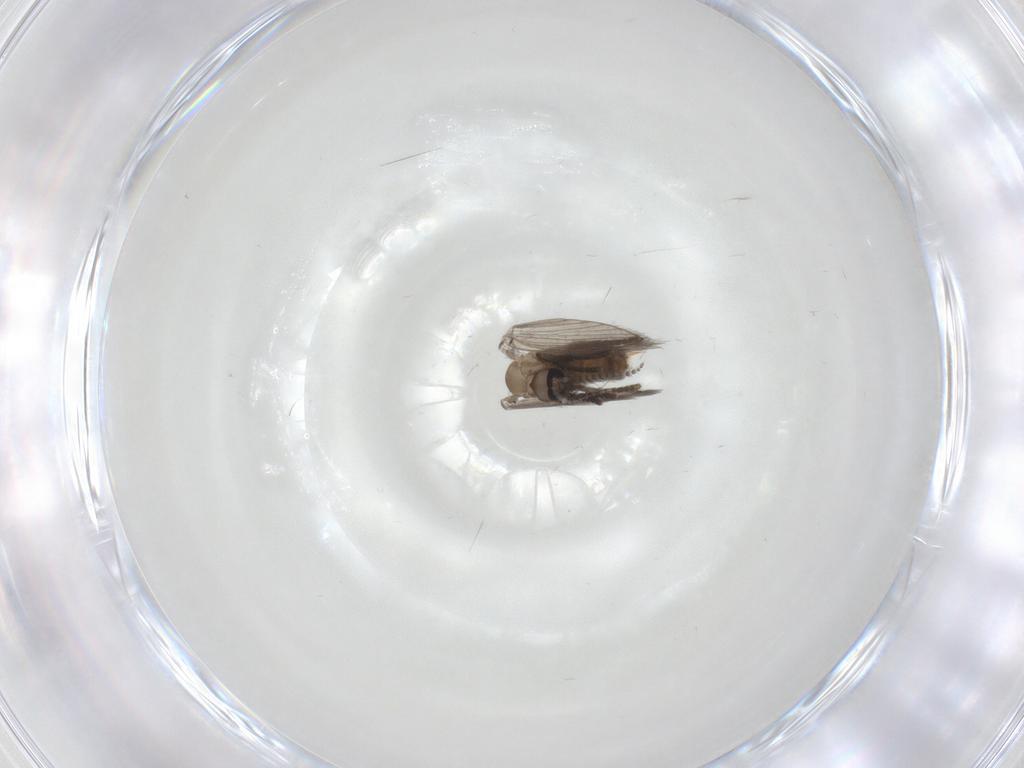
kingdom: Animalia
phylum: Arthropoda
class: Insecta
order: Diptera
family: Psychodidae
